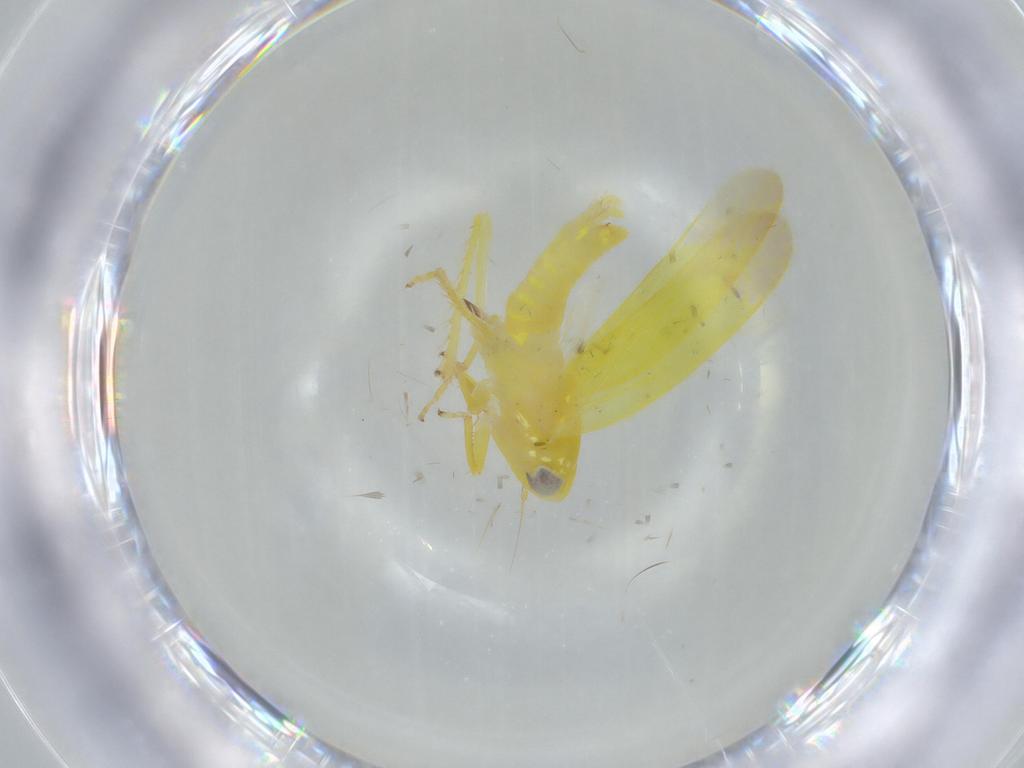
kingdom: Animalia
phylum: Arthropoda
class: Insecta
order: Hemiptera
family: Cicadellidae
